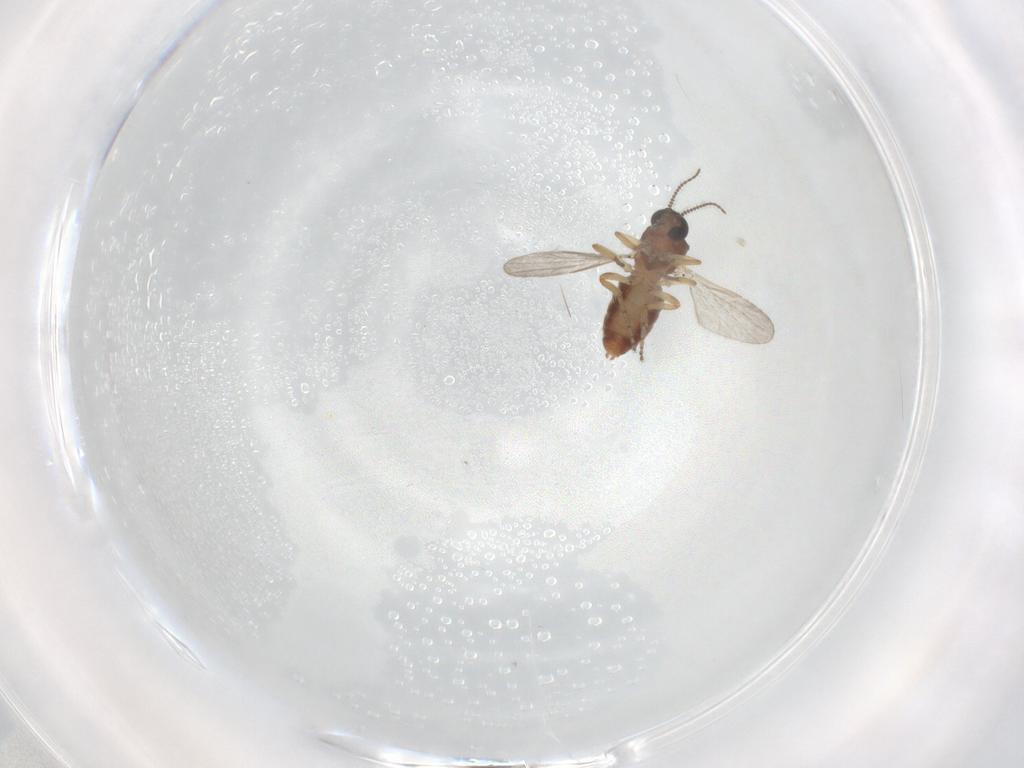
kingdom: Animalia
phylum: Arthropoda
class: Insecta
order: Diptera
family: Ceratopogonidae
